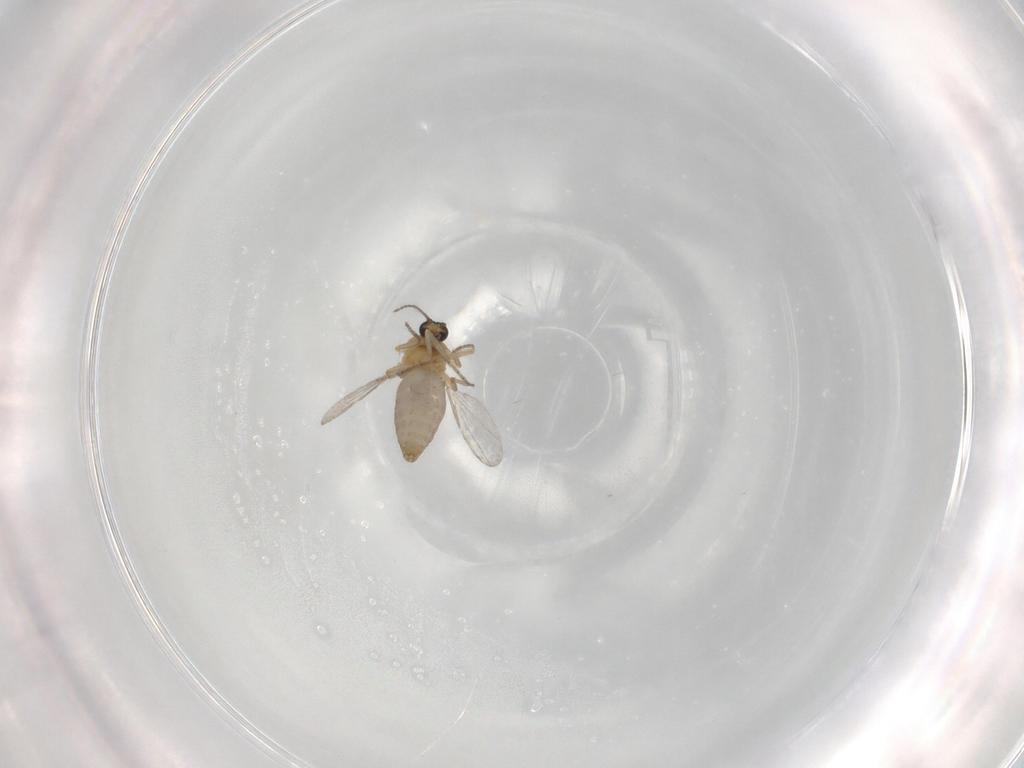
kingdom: Animalia
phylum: Arthropoda
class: Insecta
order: Diptera
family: Ceratopogonidae
